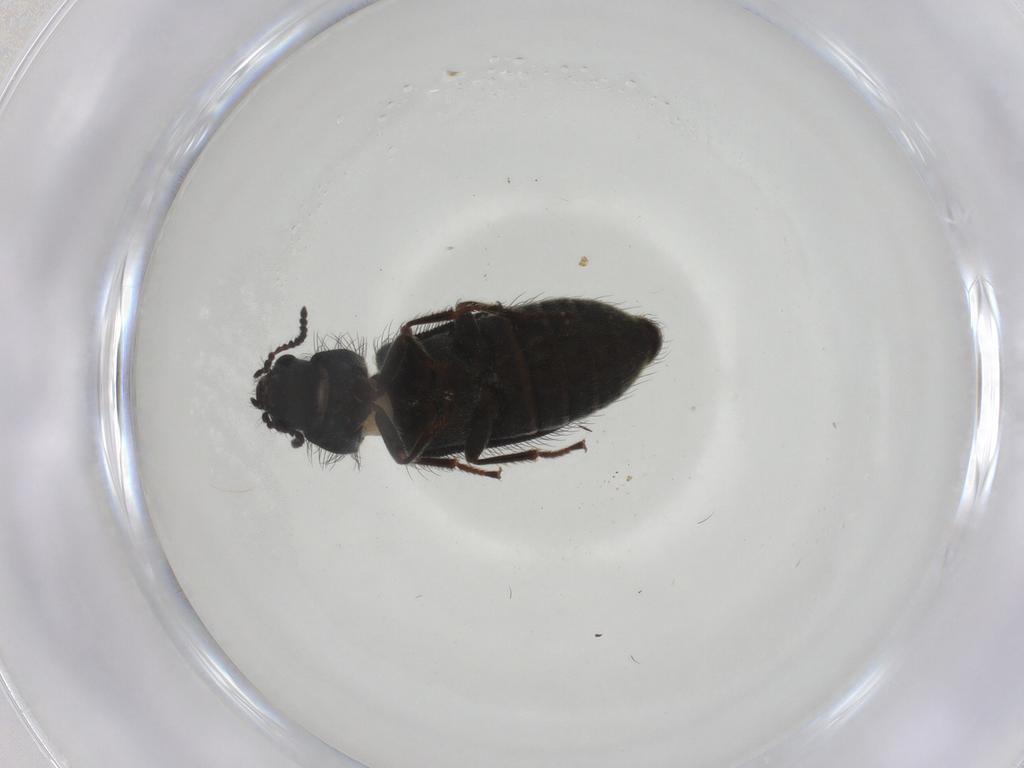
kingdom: Animalia
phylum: Arthropoda
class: Insecta
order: Coleoptera
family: Melyridae
